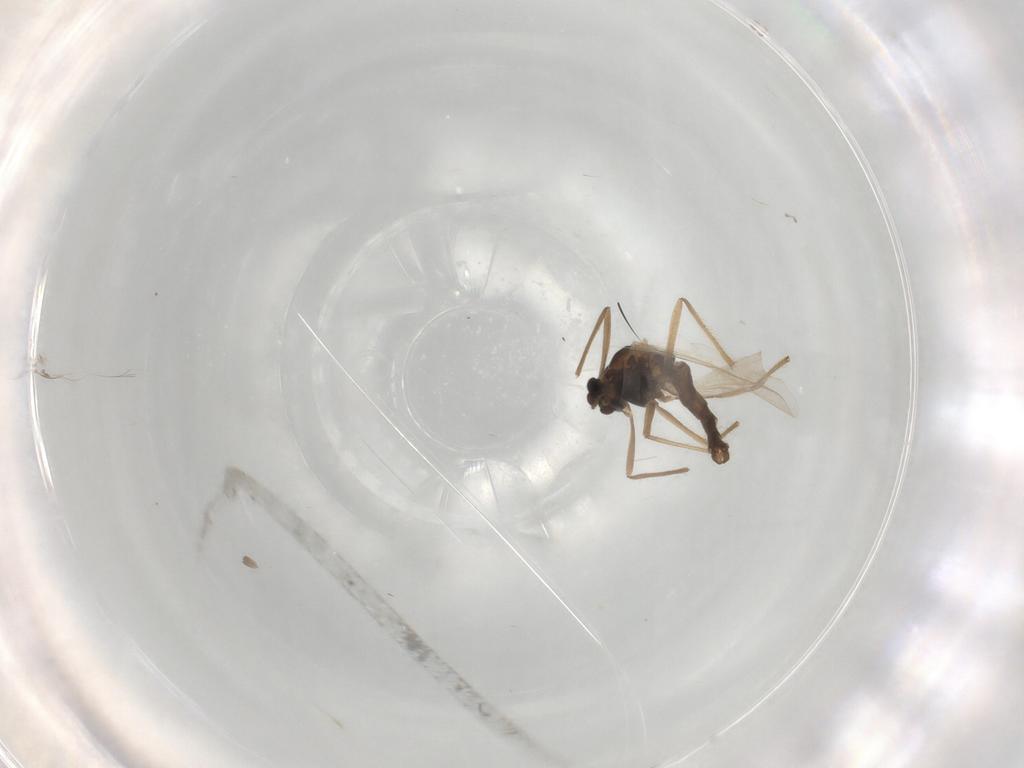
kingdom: Animalia
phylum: Arthropoda
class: Insecta
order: Diptera
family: Chironomidae
